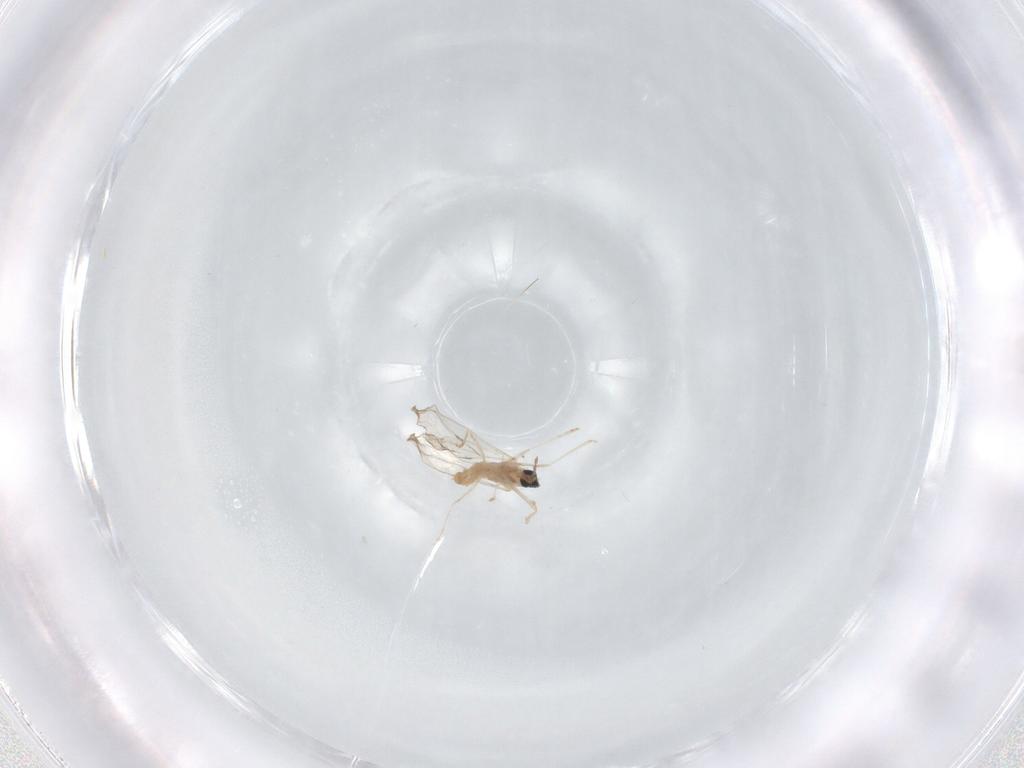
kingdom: Animalia
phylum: Arthropoda
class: Insecta
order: Diptera
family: Cecidomyiidae
